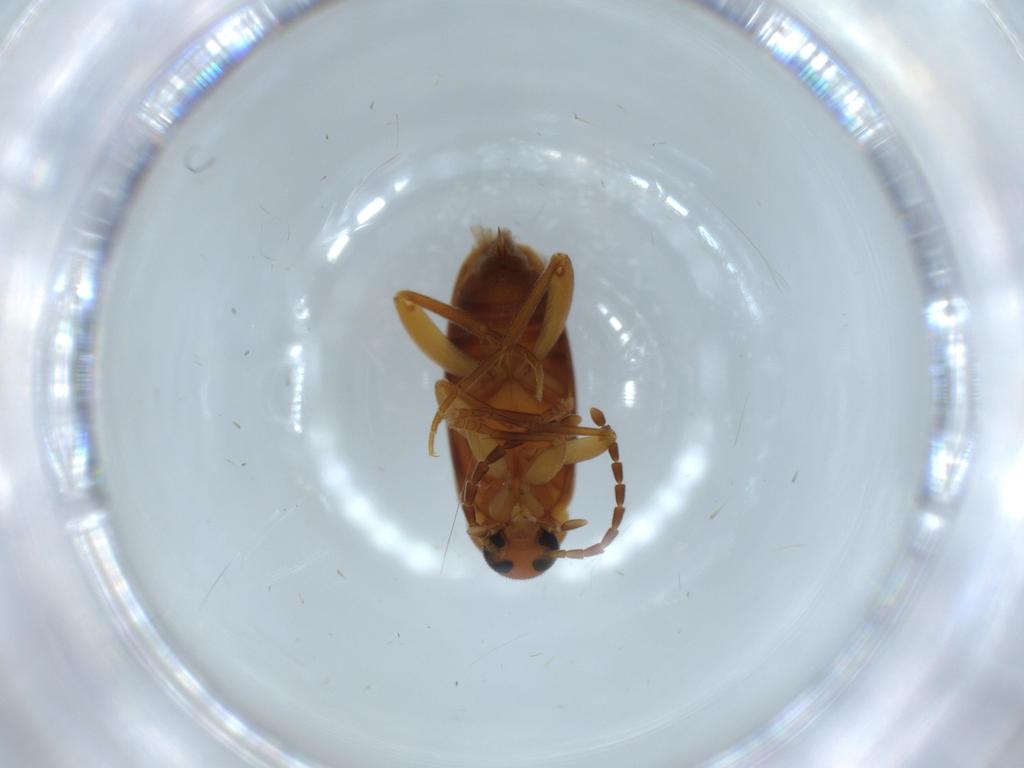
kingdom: Animalia
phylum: Arthropoda
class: Insecta
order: Coleoptera
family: Scraptiidae
